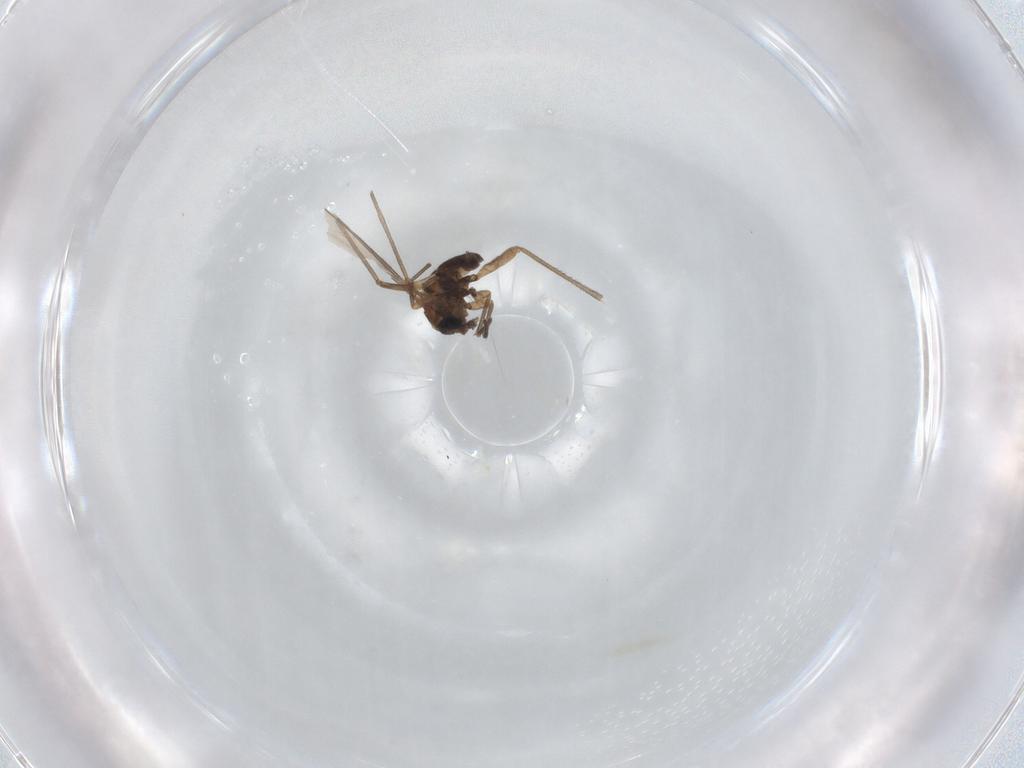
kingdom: Animalia
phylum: Arthropoda
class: Insecta
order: Diptera
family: Sciaridae
